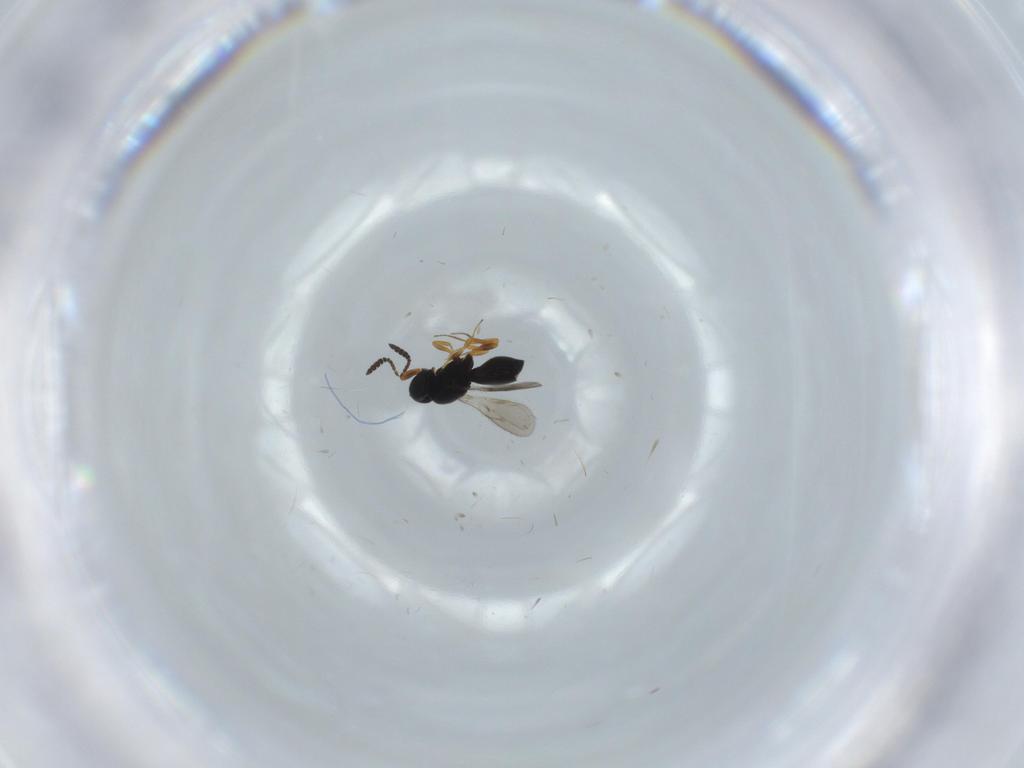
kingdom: Animalia
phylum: Arthropoda
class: Insecta
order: Hymenoptera
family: Scelionidae
